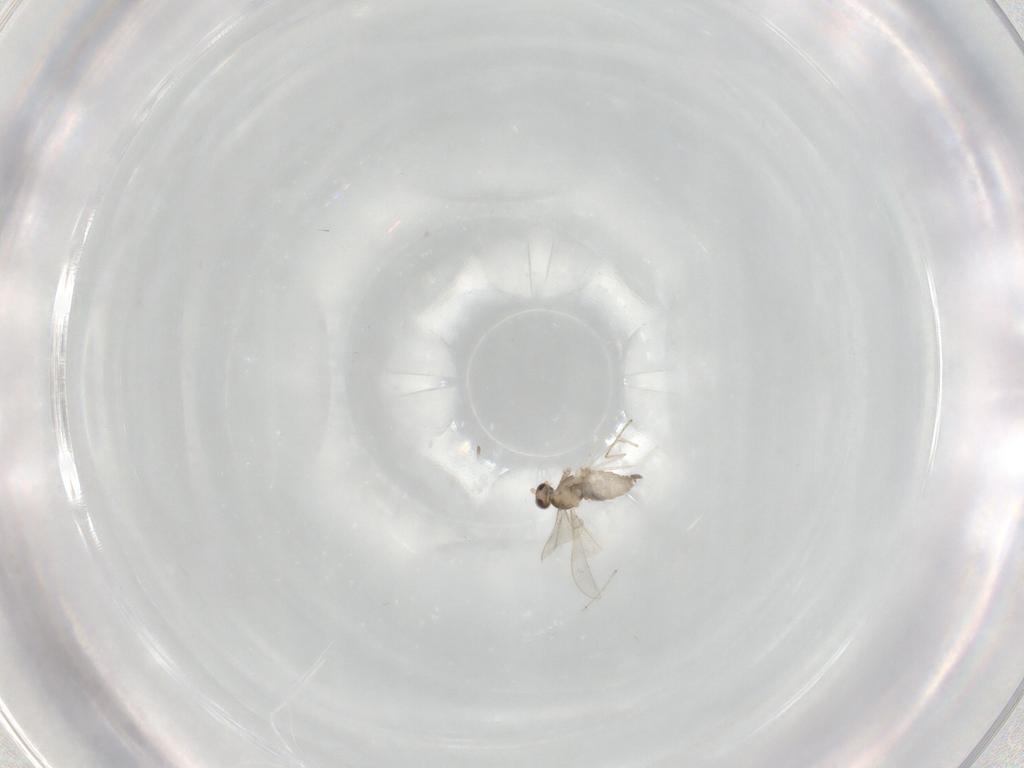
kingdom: Animalia
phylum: Arthropoda
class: Insecta
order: Diptera
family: Cecidomyiidae
